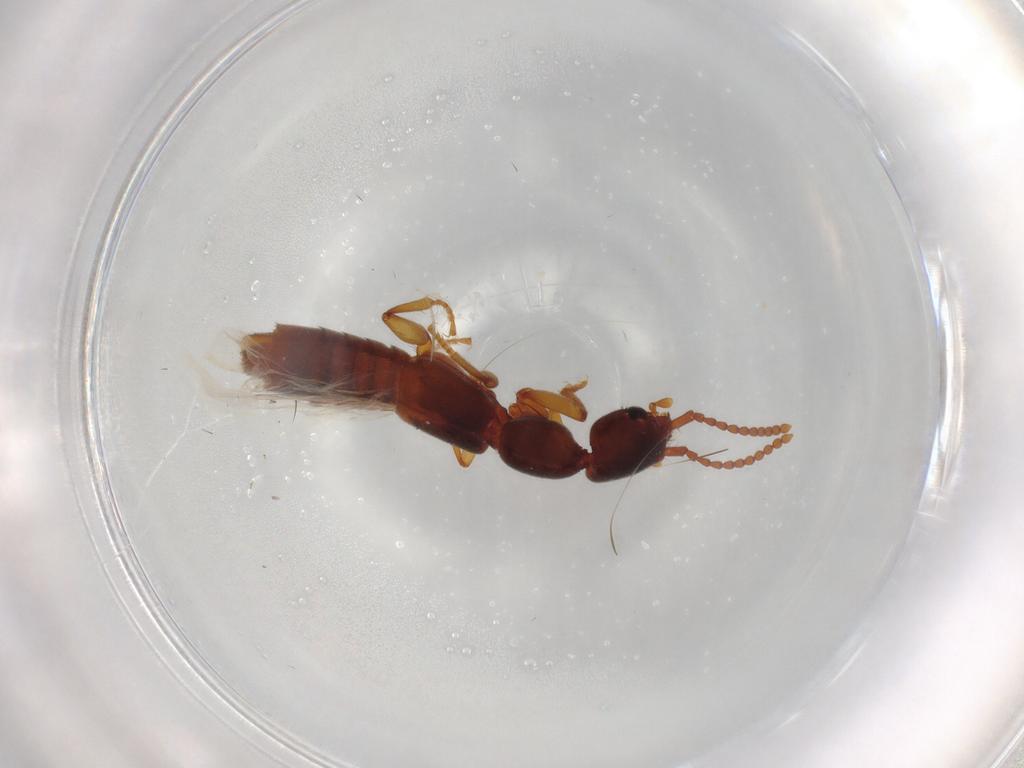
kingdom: Animalia
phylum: Arthropoda
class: Insecta
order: Coleoptera
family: Staphylinidae
